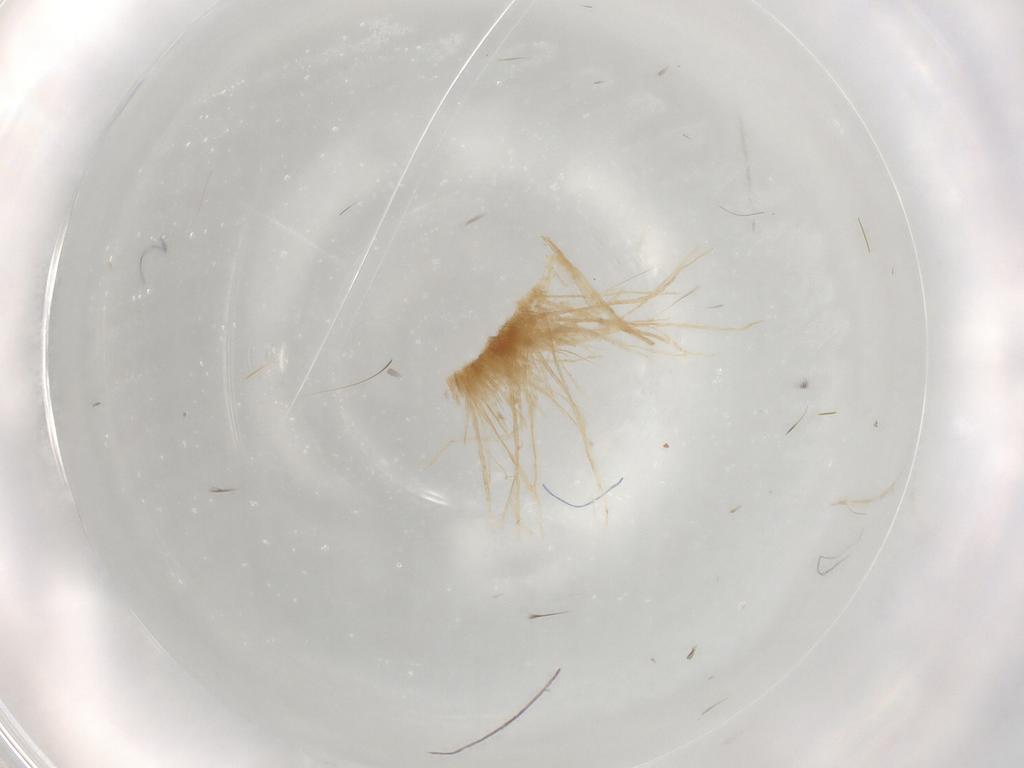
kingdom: Animalia
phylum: Arthropoda
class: Insecta
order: Diptera
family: Cecidomyiidae
